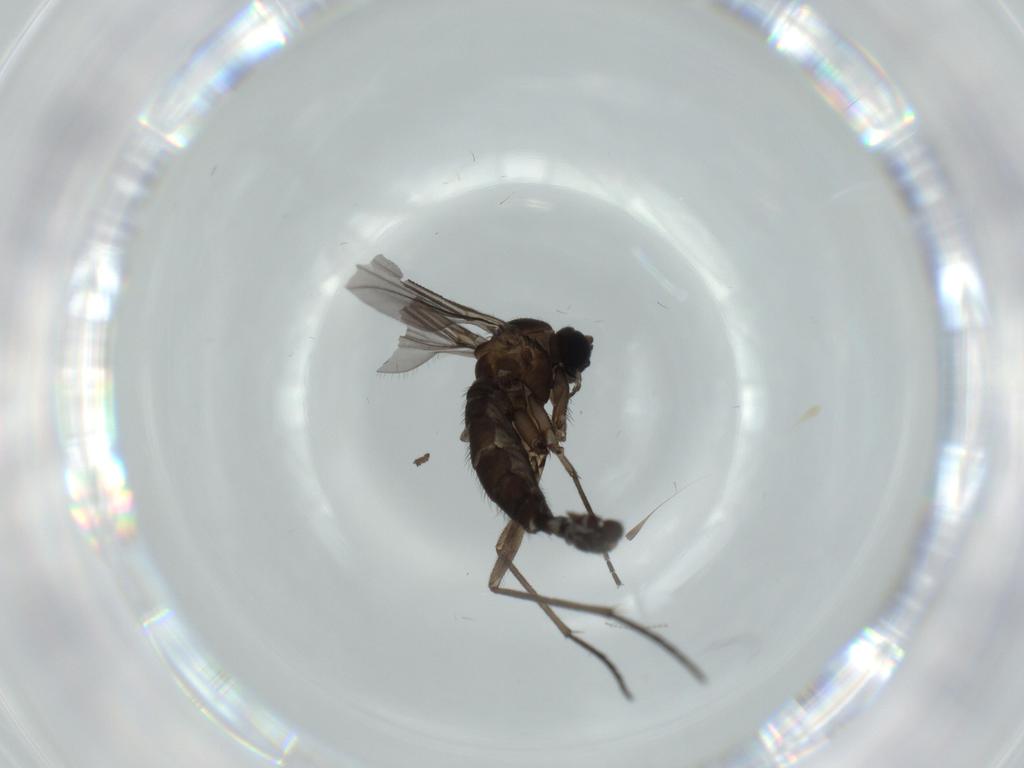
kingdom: Animalia
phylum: Arthropoda
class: Insecta
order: Diptera
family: Sciaridae
